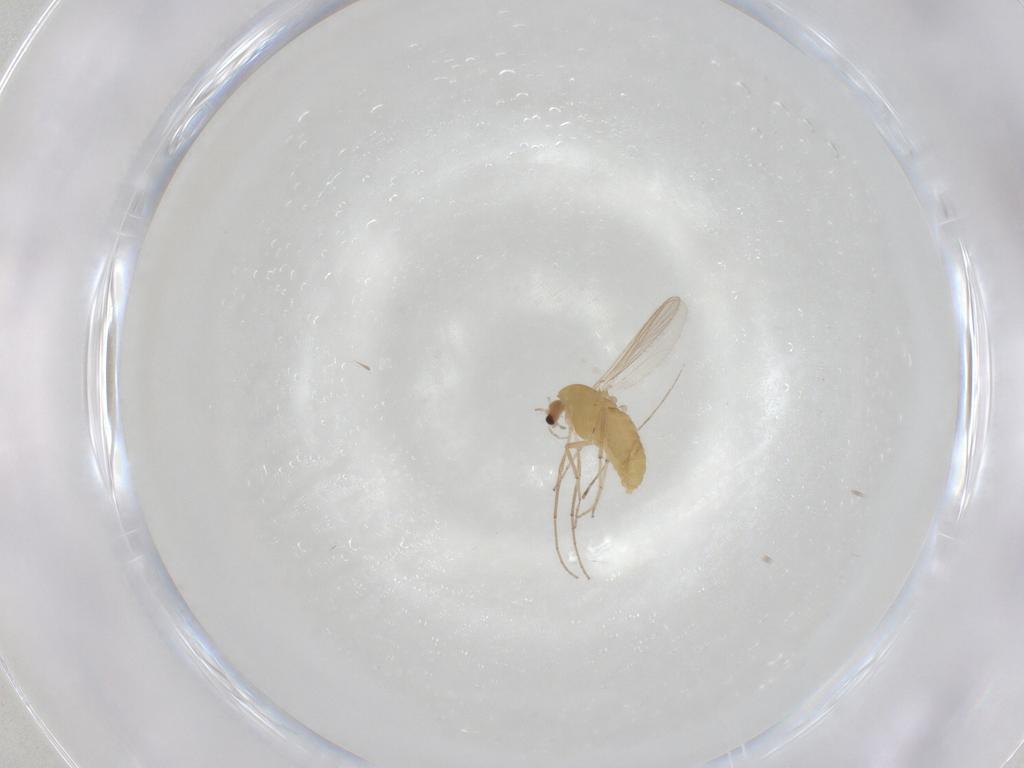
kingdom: Animalia
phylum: Arthropoda
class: Insecta
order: Diptera
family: Chironomidae
